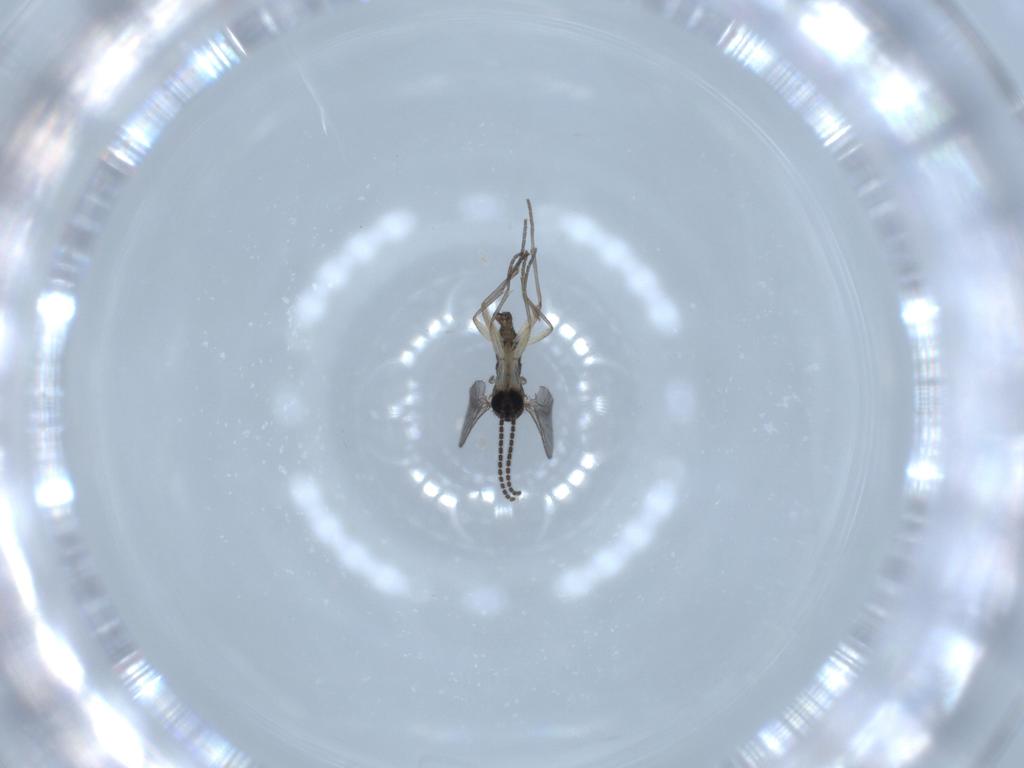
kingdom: Animalia
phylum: Arthropoda
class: Insecta
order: Diptera
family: Sciaridae
